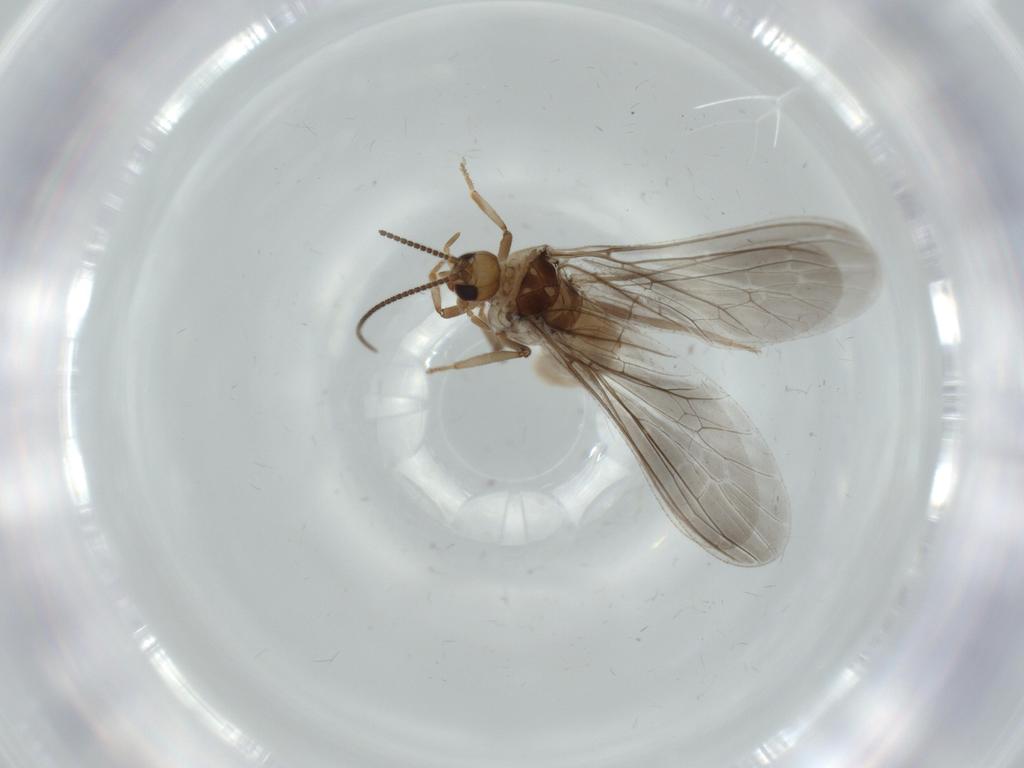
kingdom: Animalia
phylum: Arthropoda
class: Insecta
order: Neuroptera
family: Coniopterygidae
